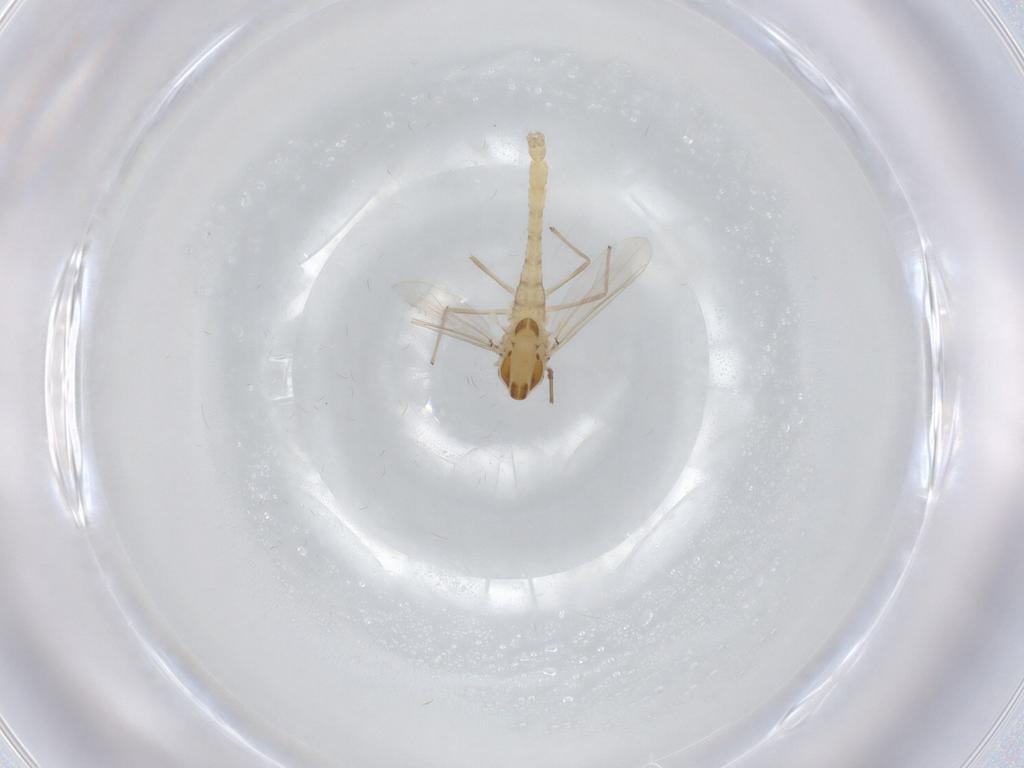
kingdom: Animalia
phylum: Arthropoda
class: Insecta
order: Diptera
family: Chironomidae
